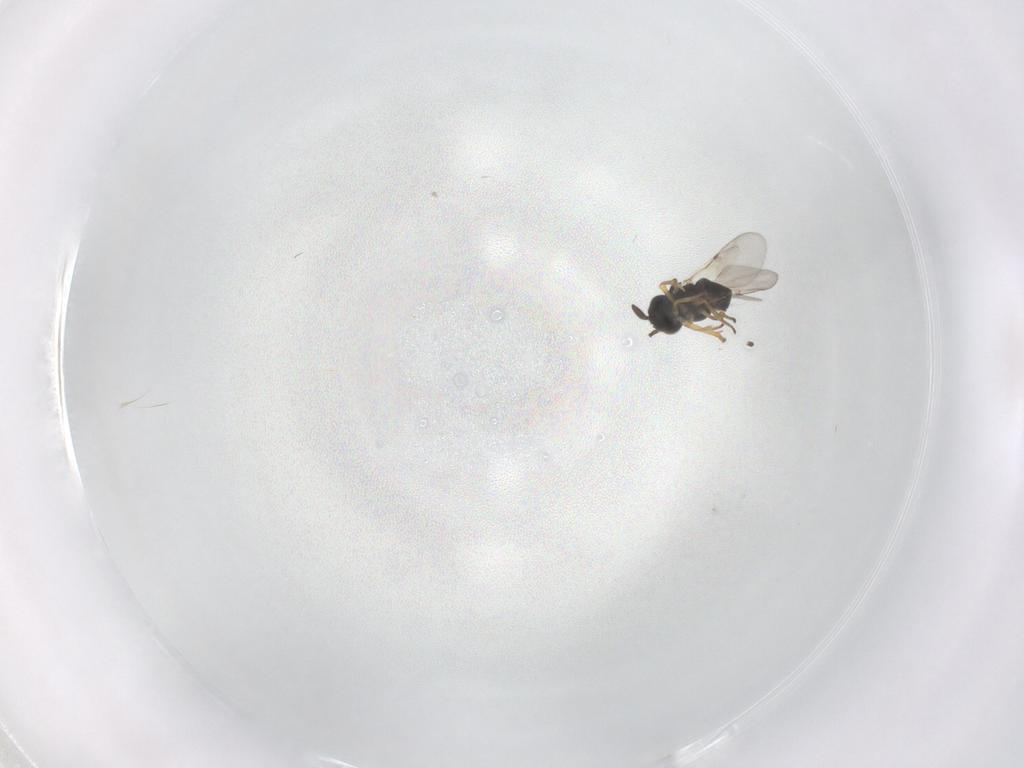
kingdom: Animalia
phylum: Arthropoda
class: Insecta
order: Hymenoptera
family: Encyrtidae
